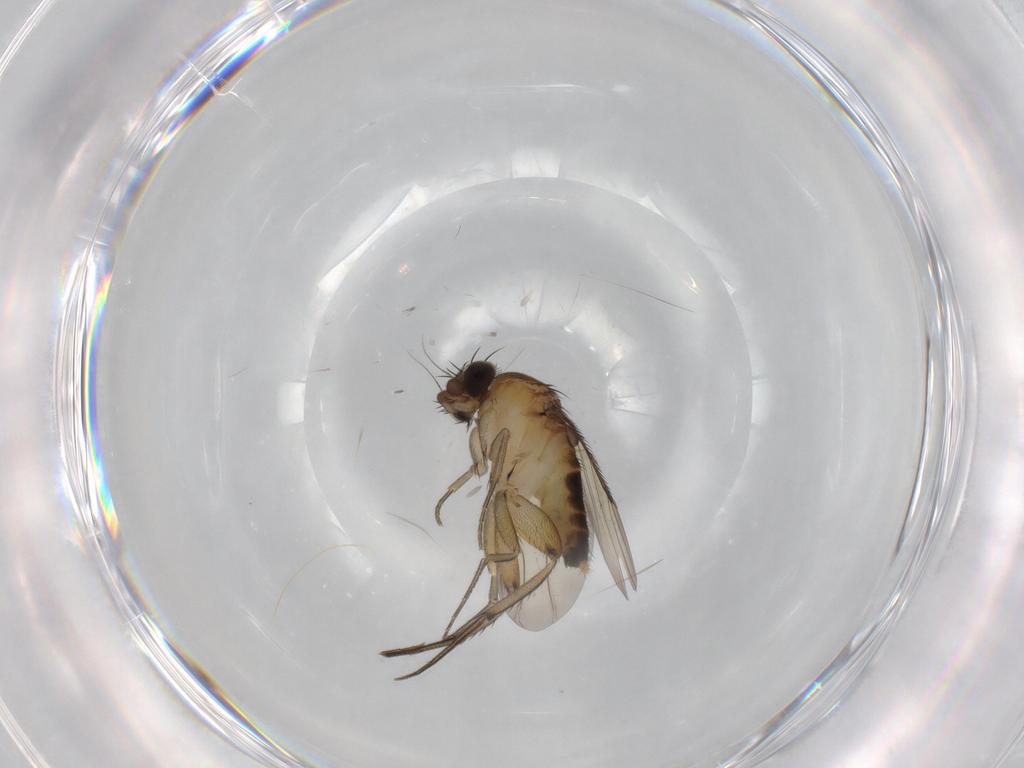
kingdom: Animalia
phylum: Arthropoda
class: Insecta
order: Diptera
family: Phoridae
